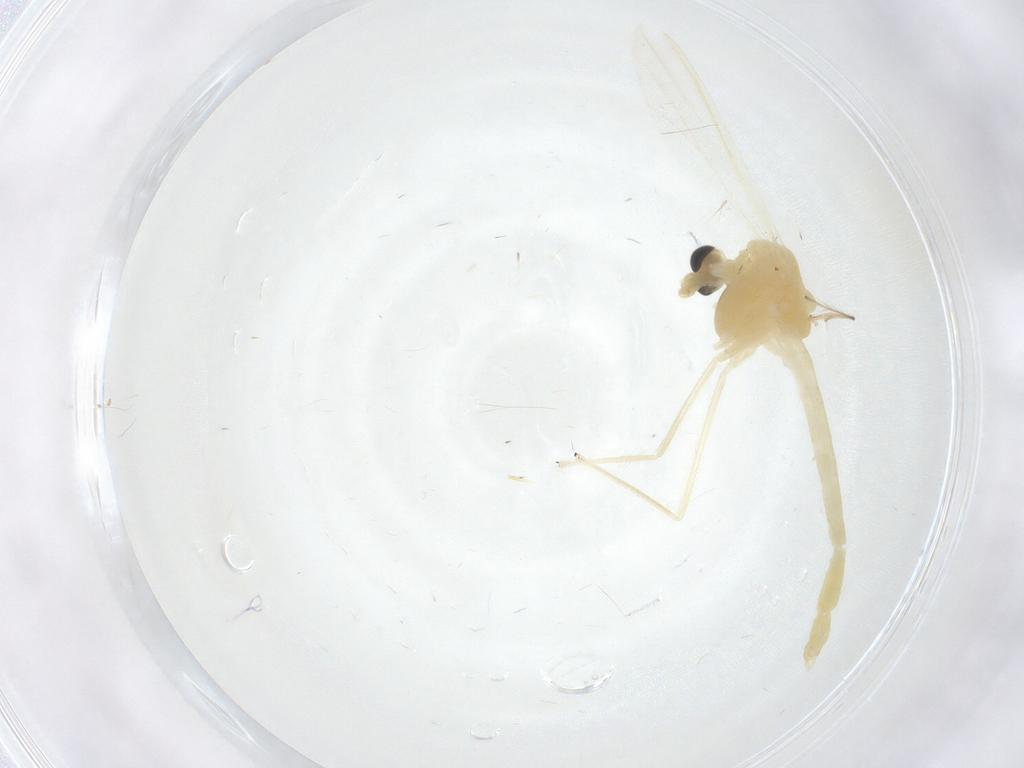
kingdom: Animalia
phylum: Arthropoda
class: Insecta
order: Diptera
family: Chironomidae
